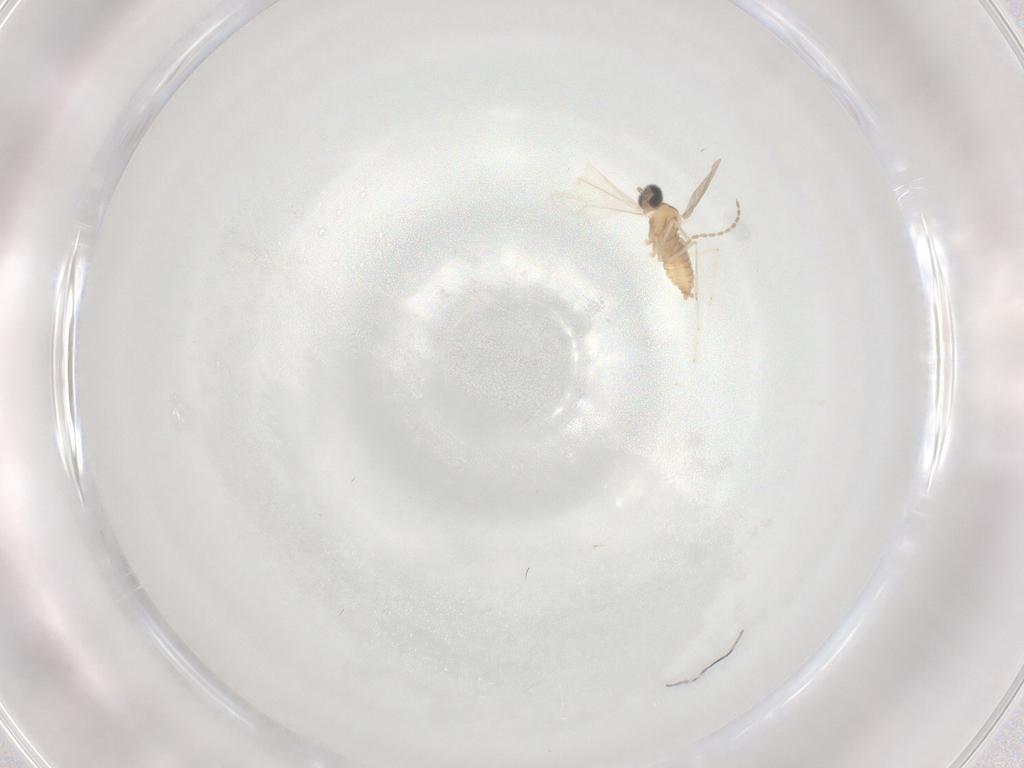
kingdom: Animalia
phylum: Arthropoda
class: Insecta
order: Diptera
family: Cecidomyiidae
